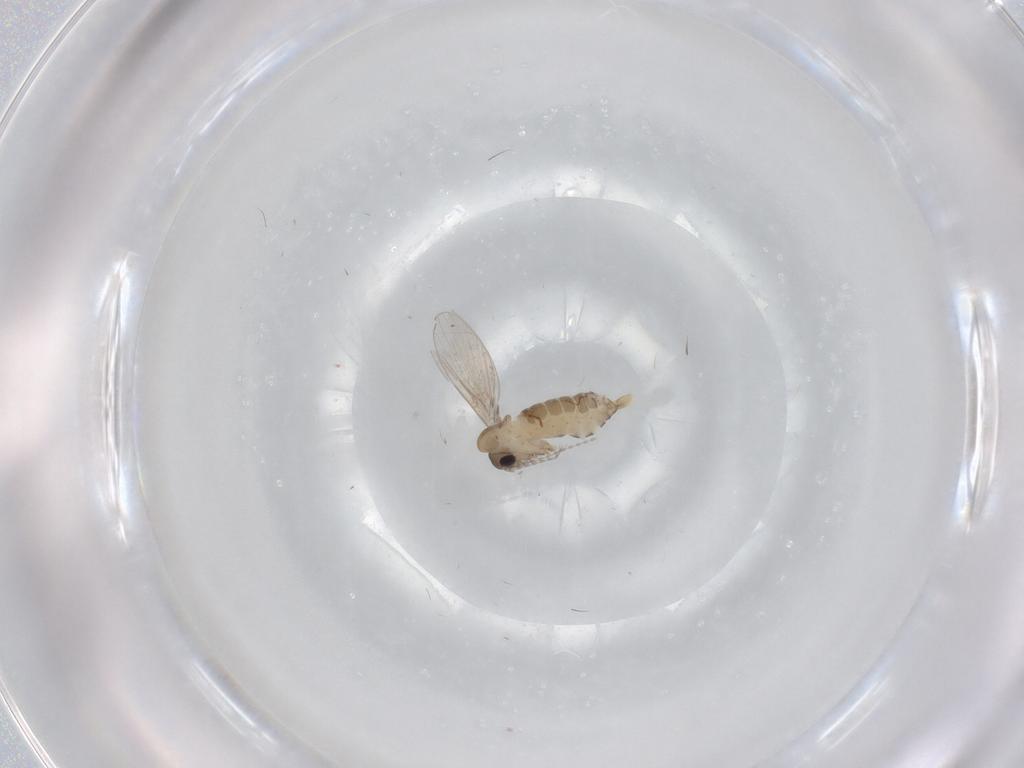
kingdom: Animalia
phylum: Arthropoda
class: Insecta
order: Diptera
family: Psychodidae
